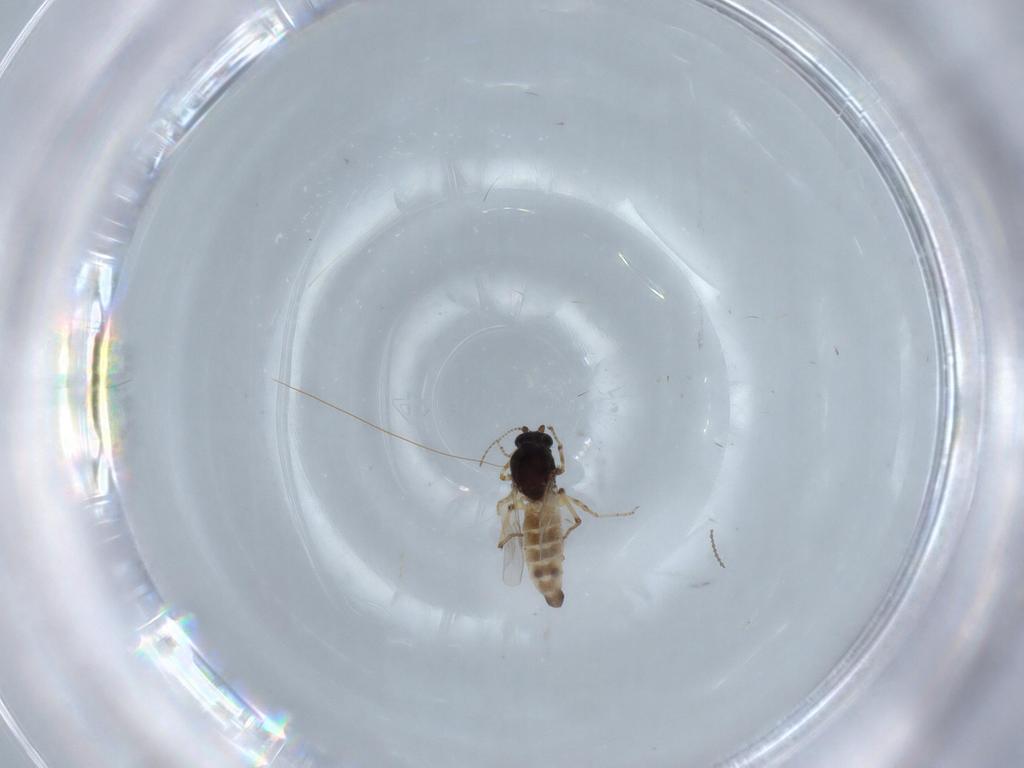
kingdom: Animalia
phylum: Arthropoda
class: Insecta
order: Diptera
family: Ceratopogonidae
